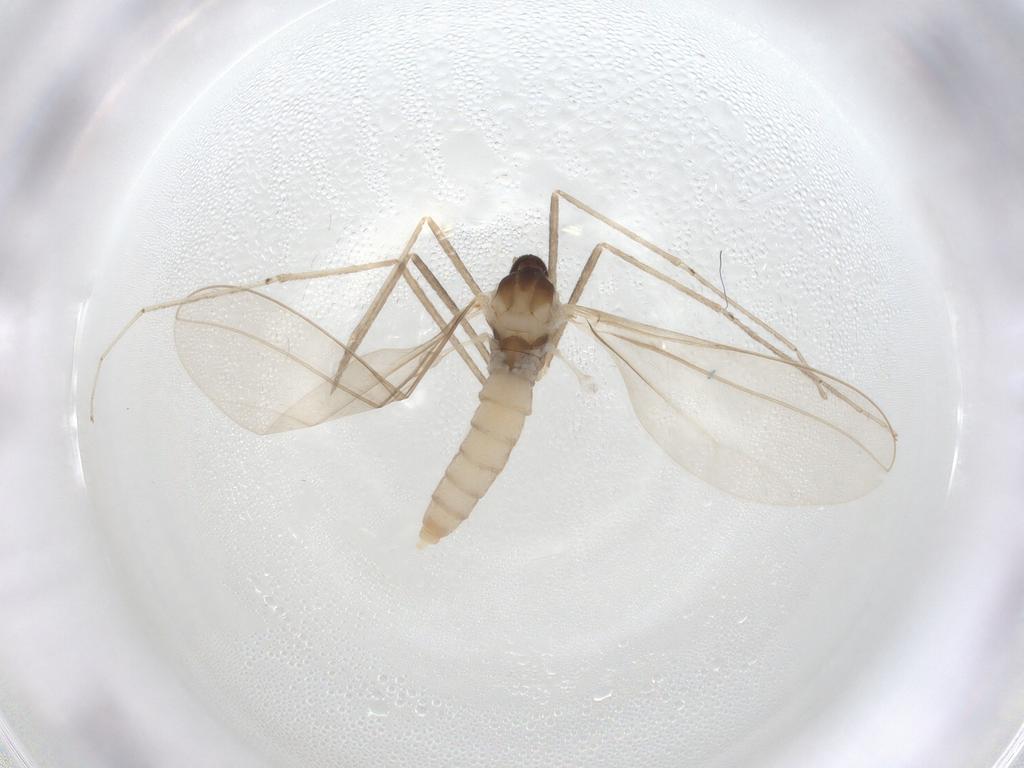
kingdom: Animalia
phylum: Arthropoda
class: Insecta
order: Diptera
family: Cecidomyiidae
